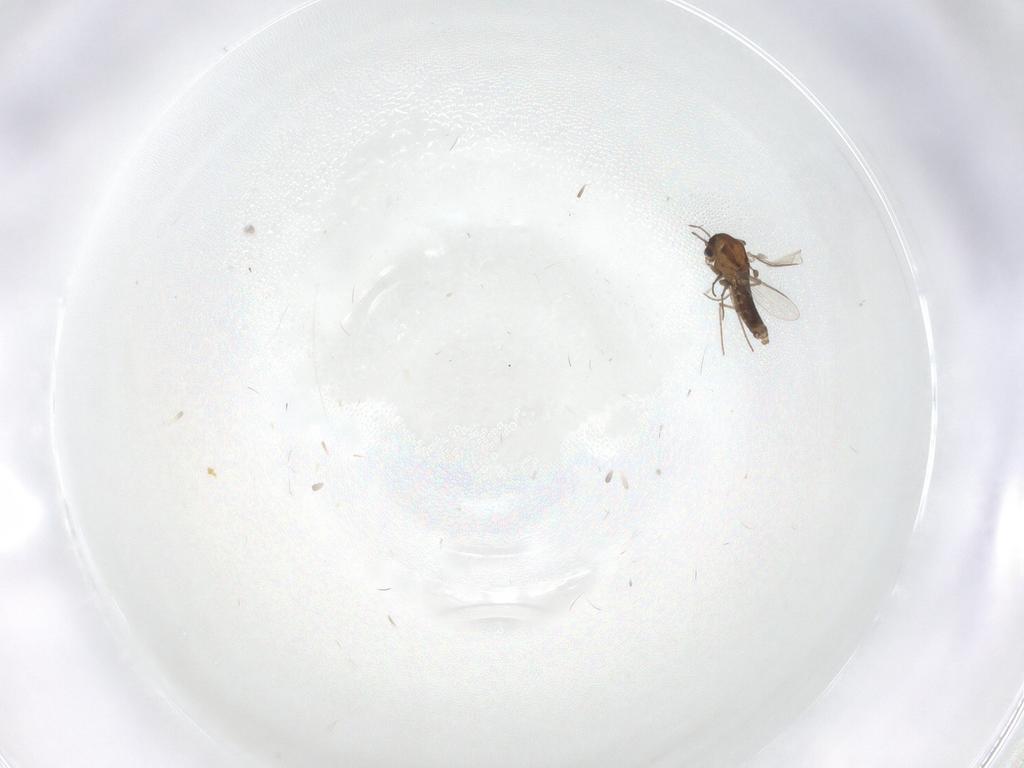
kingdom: Animalia
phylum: Arthropoda
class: Insecta
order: Diptera
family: Chironomidae
